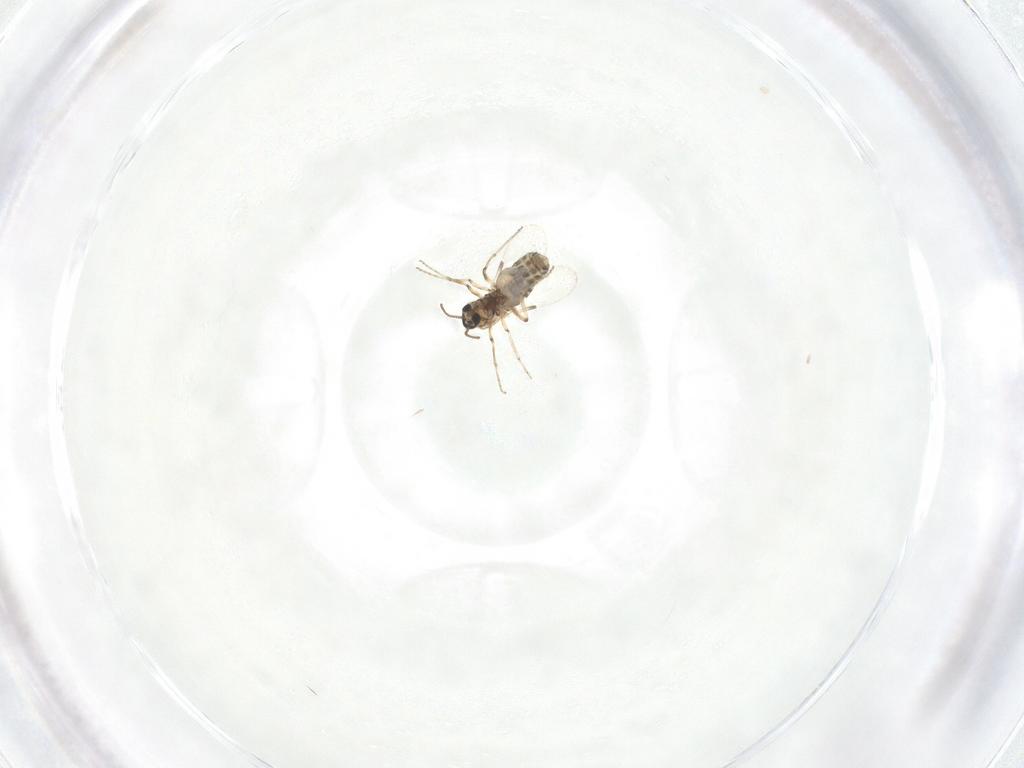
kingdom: Animalia
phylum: Arthropoda
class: Insecta
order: Diptera
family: Ceratopogonidae
